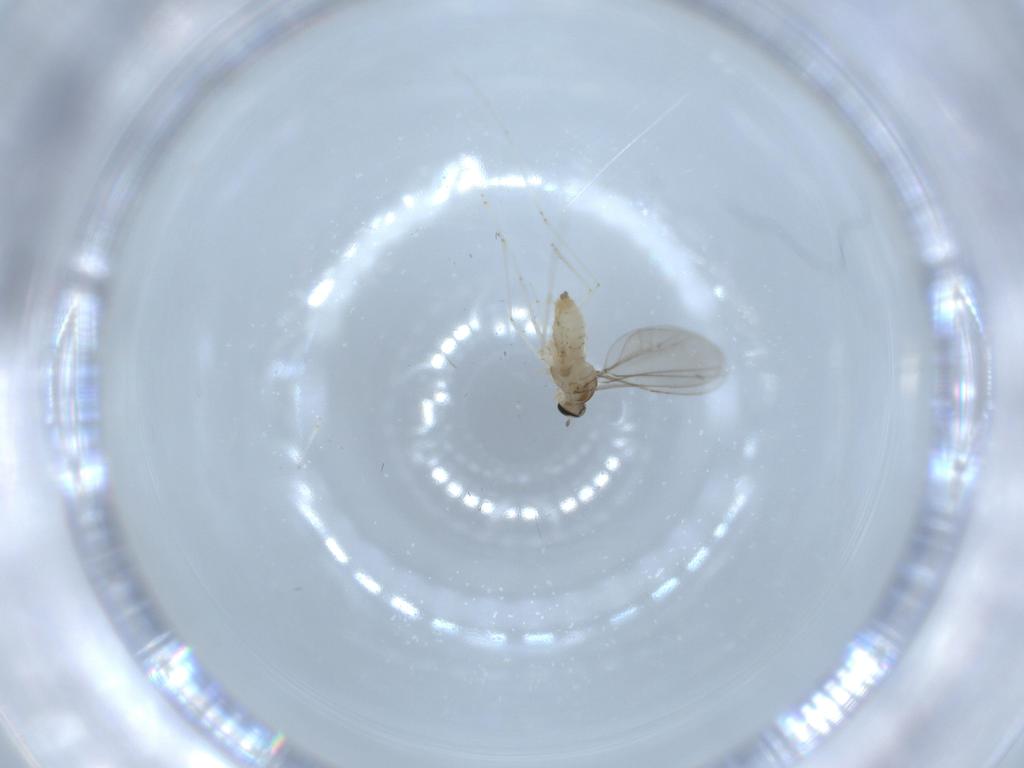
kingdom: Animalia
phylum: Arthropoda
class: Insecta
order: Diptera
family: Cecidomyiidae
